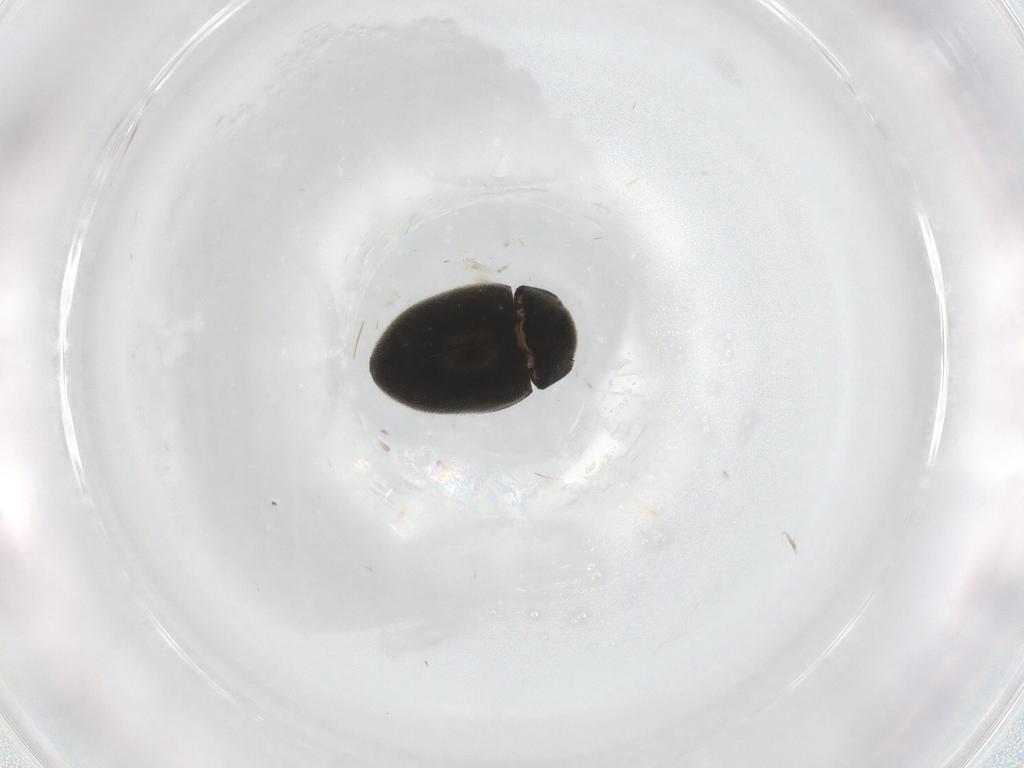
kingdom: Animalia
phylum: Arthropoda
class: Insecta
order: Coleoptera
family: Limnichidae
